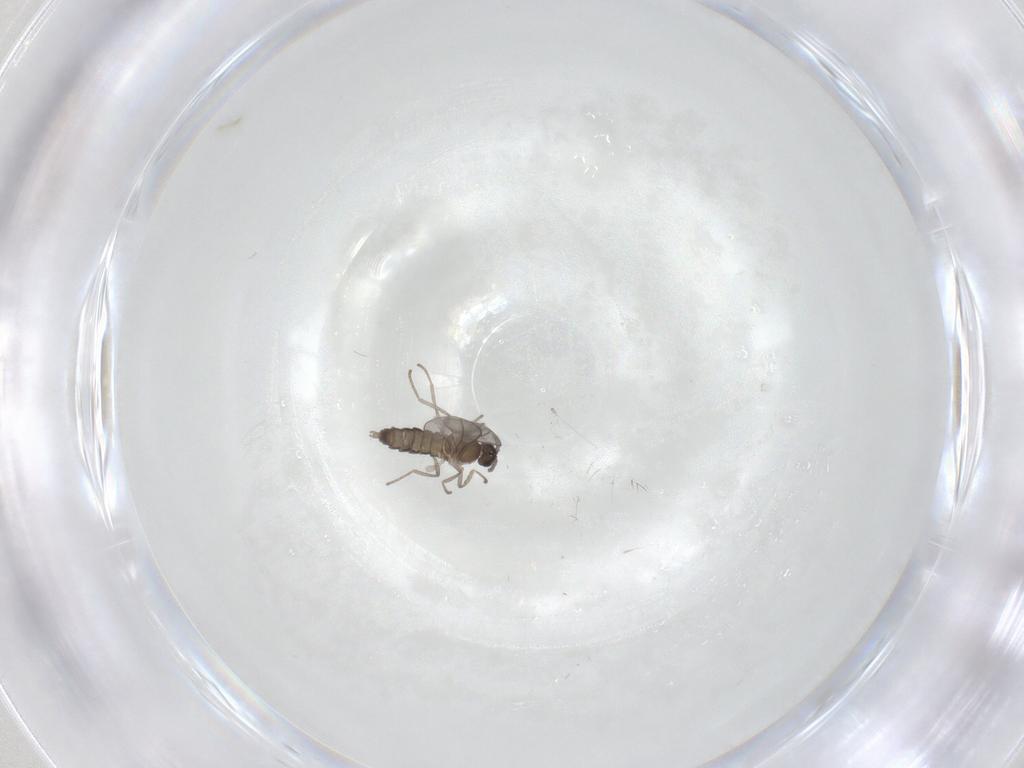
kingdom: Animalia
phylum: Arthropoda
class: Insecta
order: Diptera
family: Cecidomyiidae
